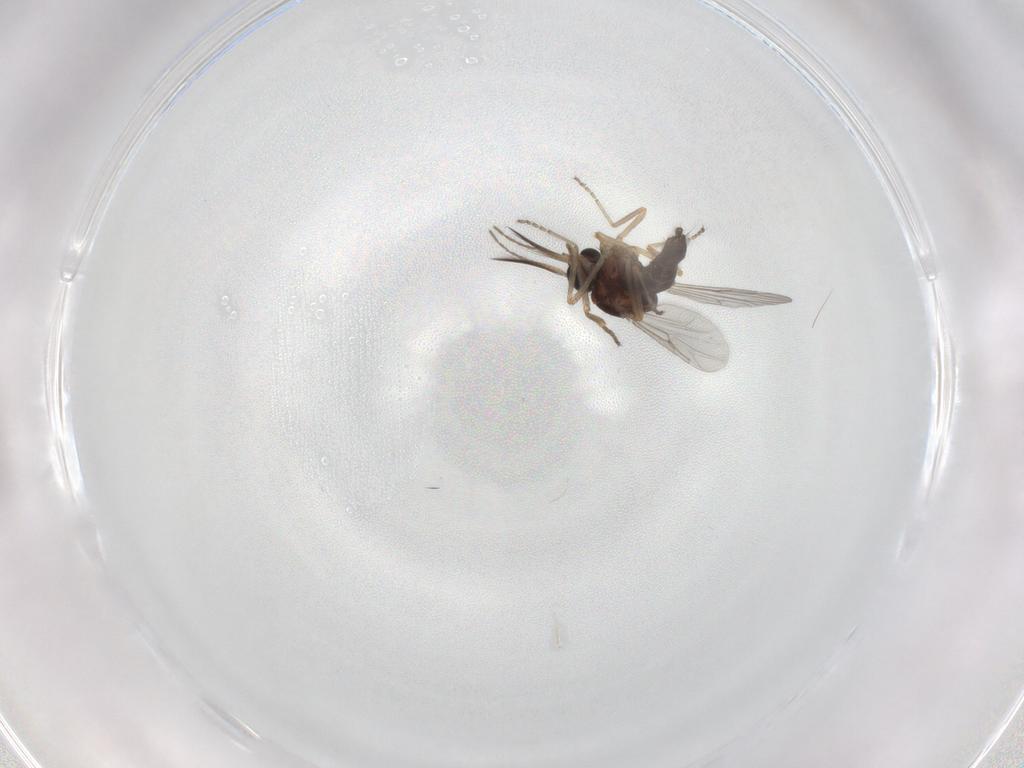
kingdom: Animalia
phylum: Arthropoda
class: Insecta
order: Diptera
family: Ceratopogonidae
